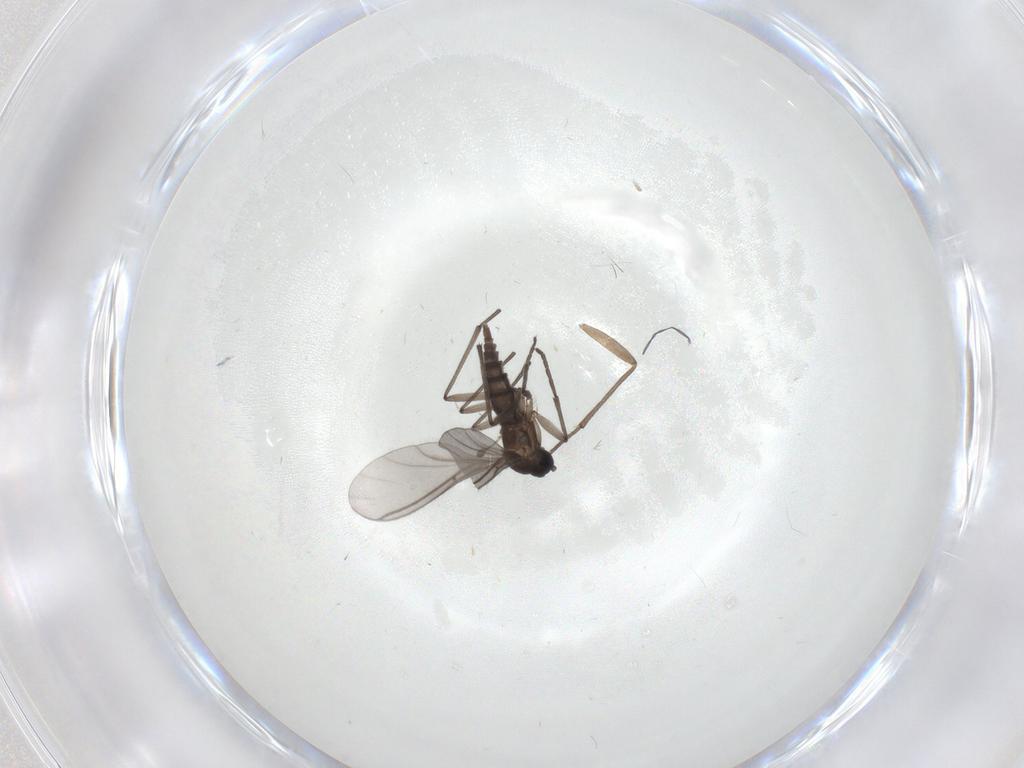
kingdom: Animalia
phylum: Arthropoda
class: Insecta
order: Diptera
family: Sciaridae
